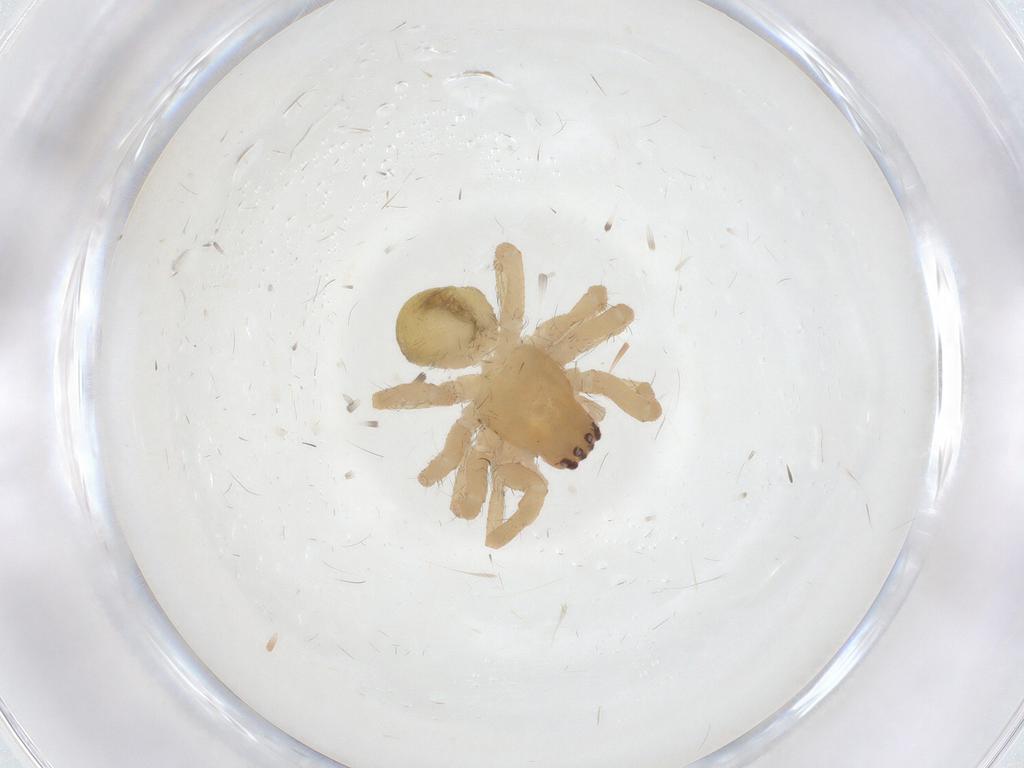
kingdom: Animalia
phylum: Arthropoda
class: Arachnida
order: Araneae
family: Mimetidae
